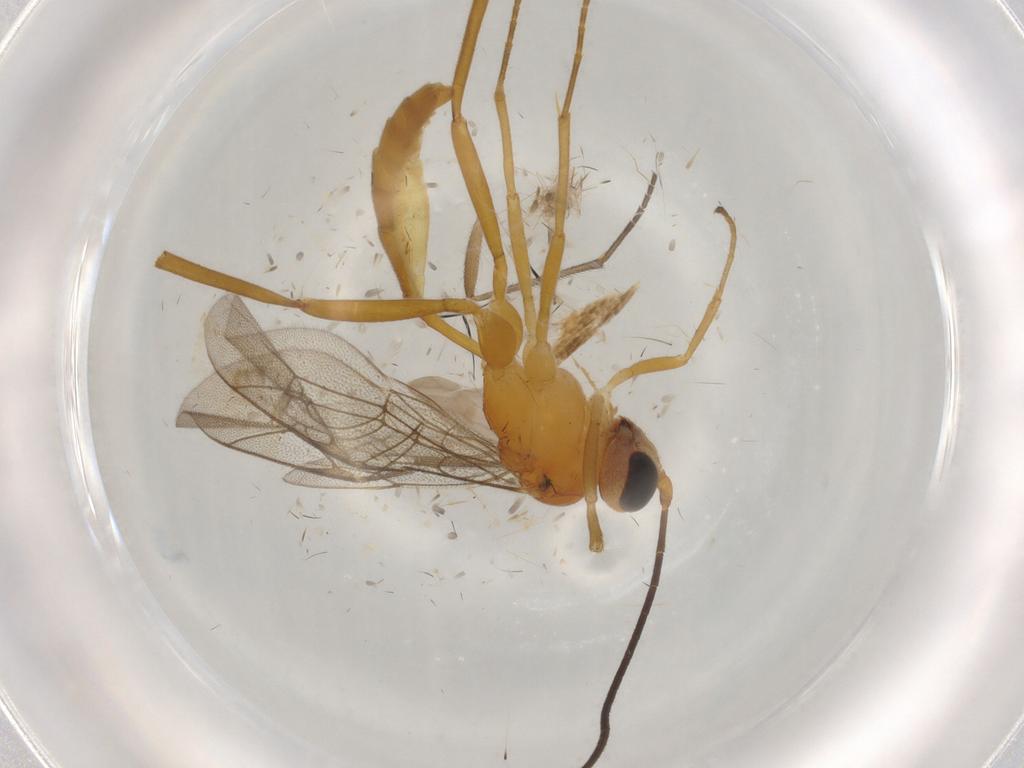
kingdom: Animalia
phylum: Arthropoda
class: Insecta
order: Hymenoptera
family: Ichneumonidae
